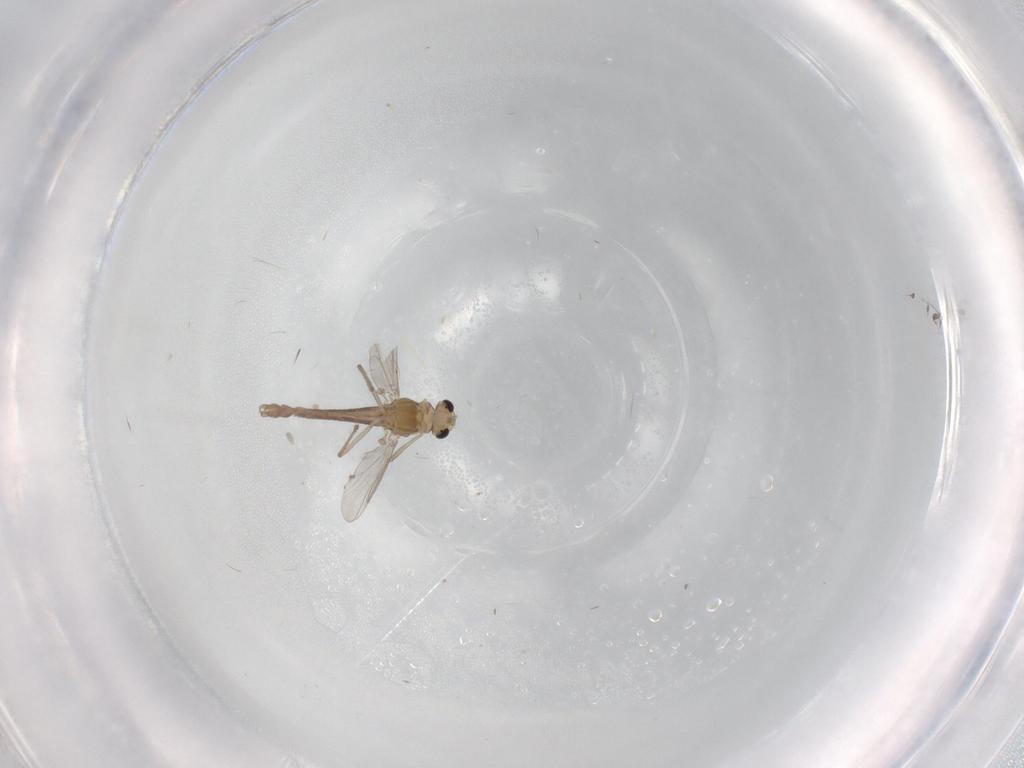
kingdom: Animalia
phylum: Arthropoda
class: Insecta
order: Diptera
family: Chironomidae
